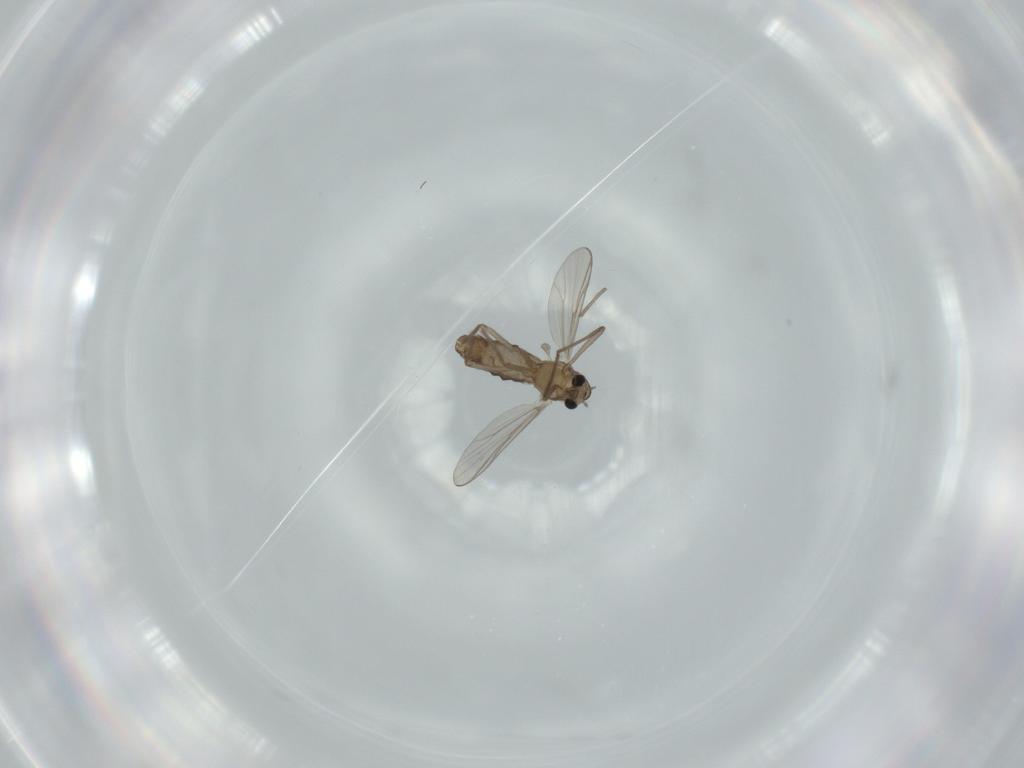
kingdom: Animalia
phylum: Arthropoda
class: Insecta
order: Diptera
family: Chironomidae
